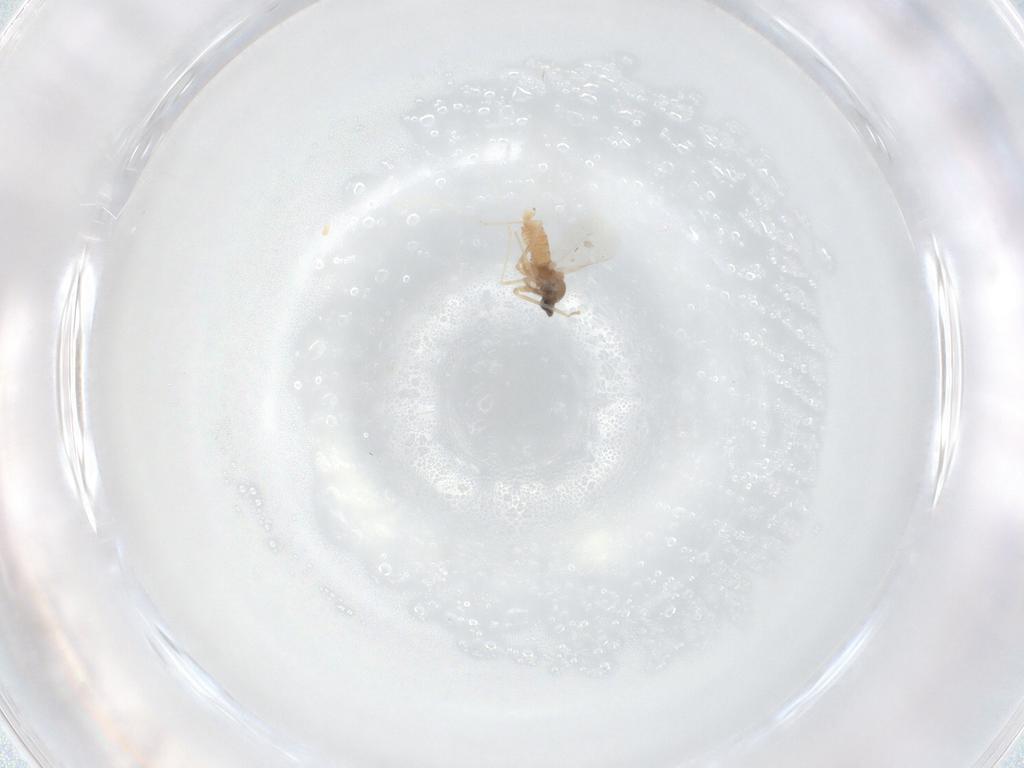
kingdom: Animalia
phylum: Arthropoda
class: Insecta
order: Diptera
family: Cecidomyiidae
